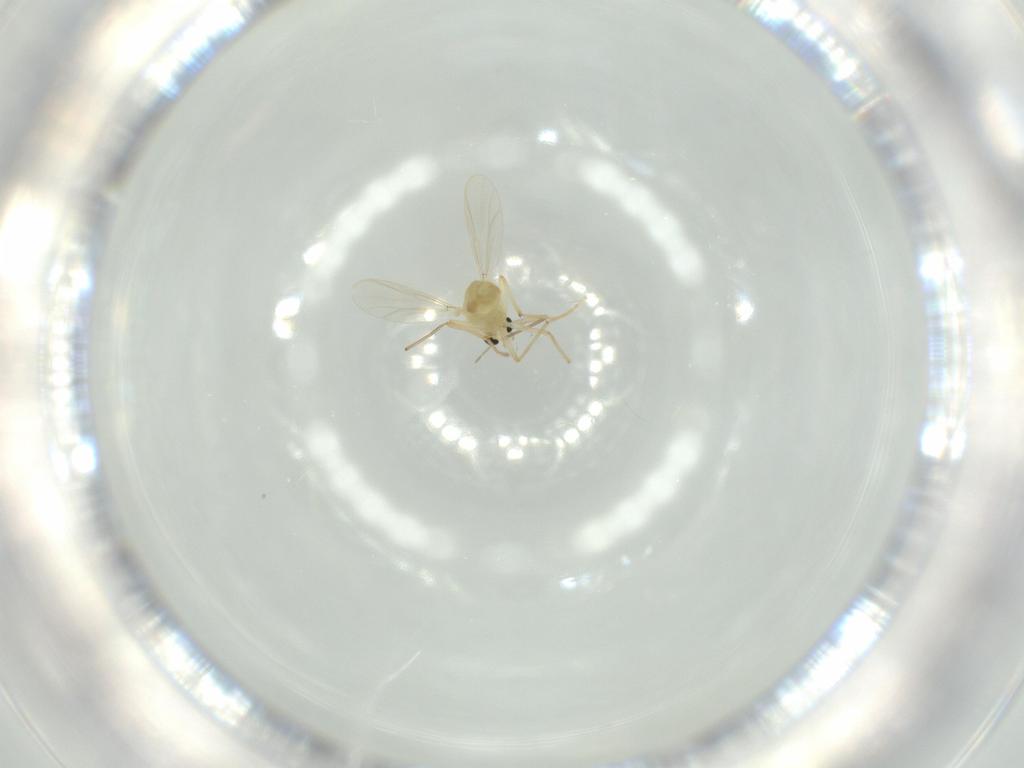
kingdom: Animalia
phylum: Arthropoda
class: Insecta
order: Diptera
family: Chironomidae
